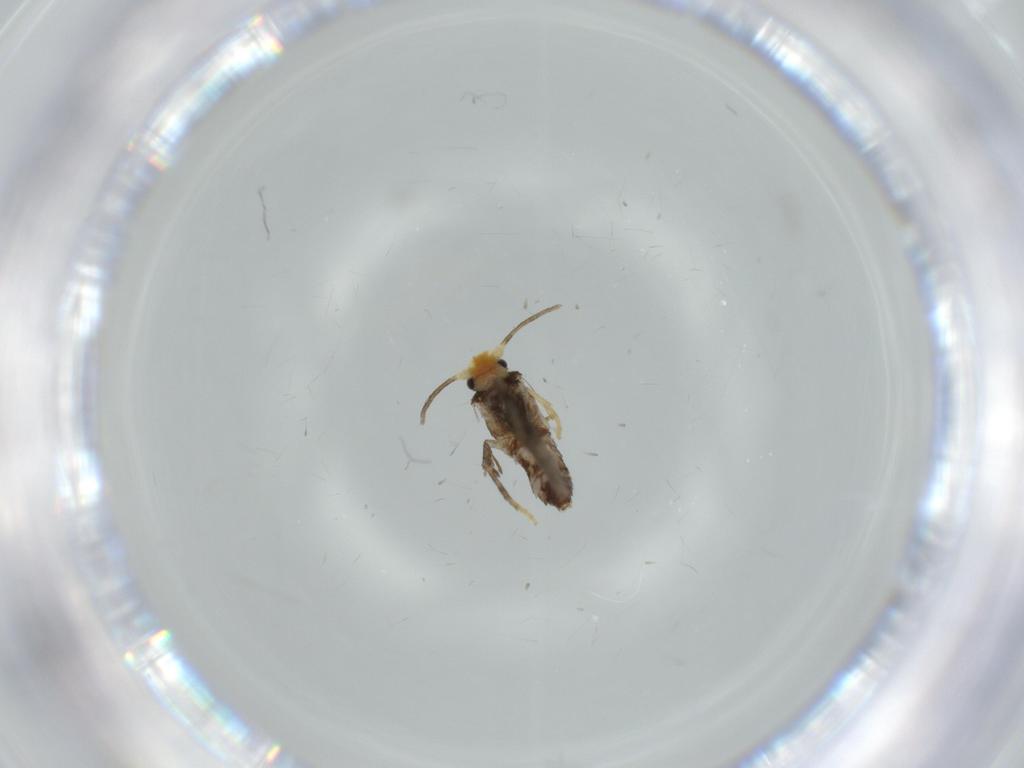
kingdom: Animalia
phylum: Arthropoda
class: Insecta
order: Lepidoptera
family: Nepticulidae
